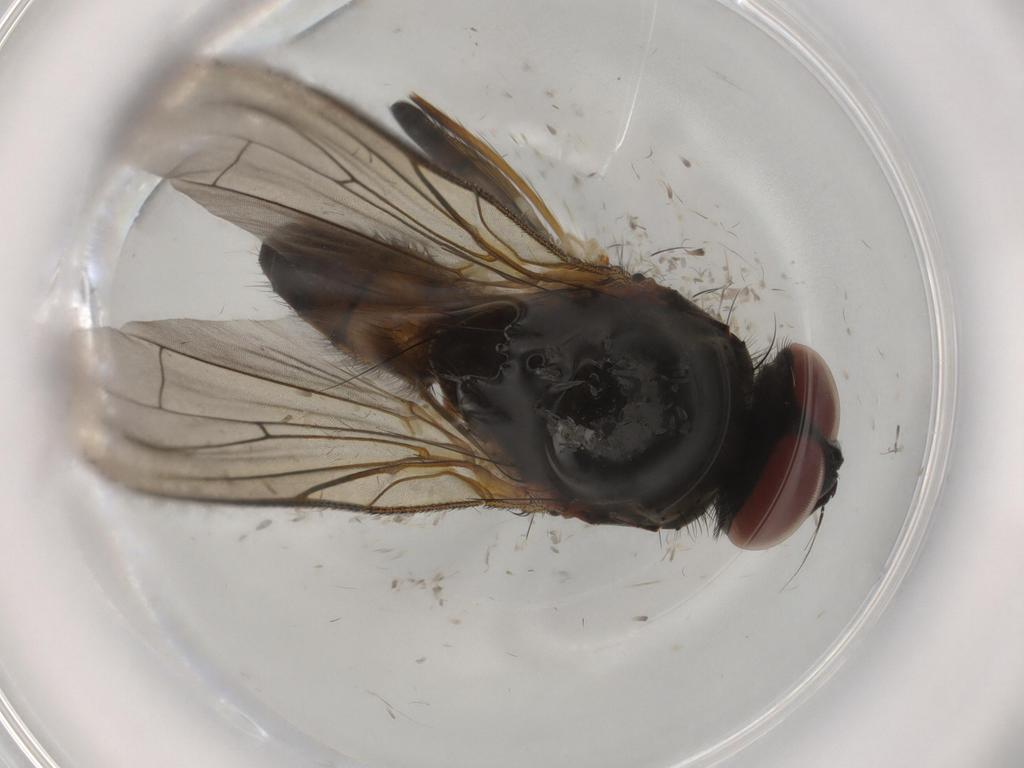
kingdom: Animalia
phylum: Arthropoda
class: Insecta
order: Diptera
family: Anthomyiidae
